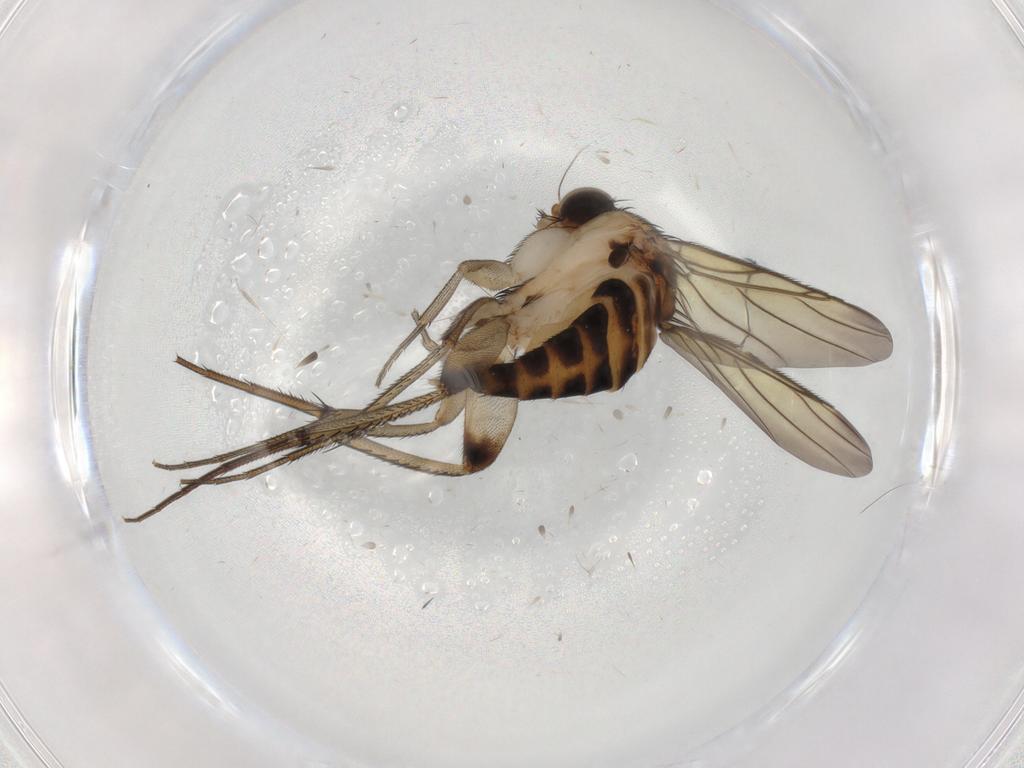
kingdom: Animalia
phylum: Arthropoda
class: Insecta
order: Diptera
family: Phoridae
